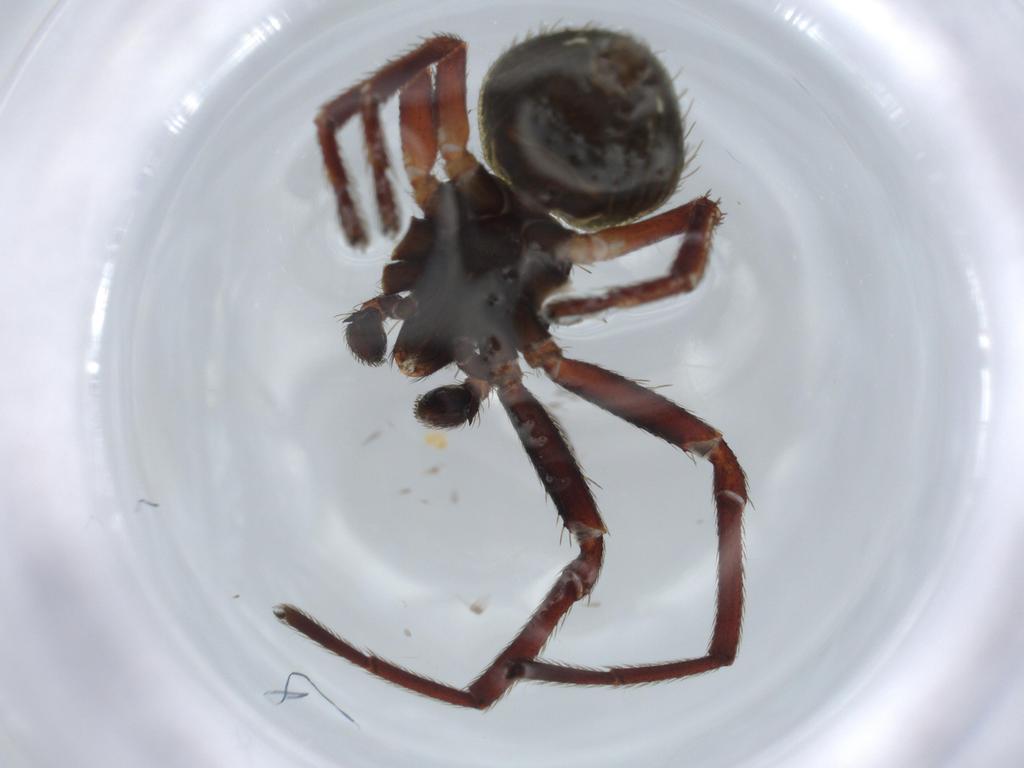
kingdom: Animalia
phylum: Arthropoda
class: Arachnida
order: Araneae
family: Thomisidae
